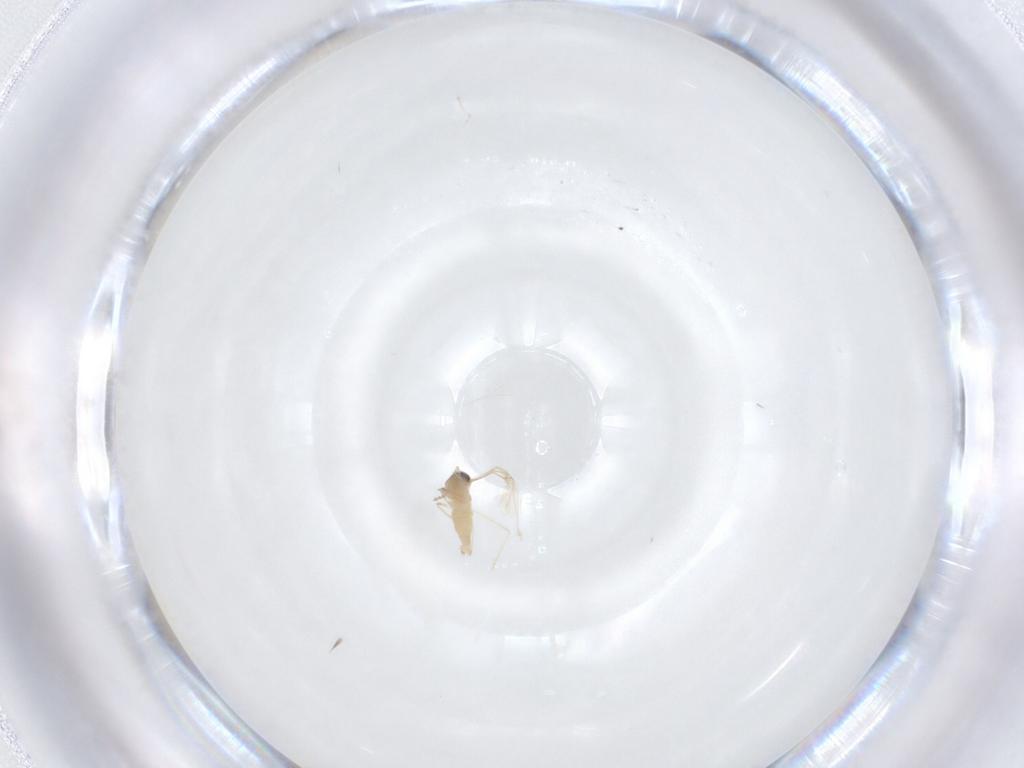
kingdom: Animalia
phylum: Arthropoda
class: Insecta
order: Diptera
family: Cecidomyiidae
